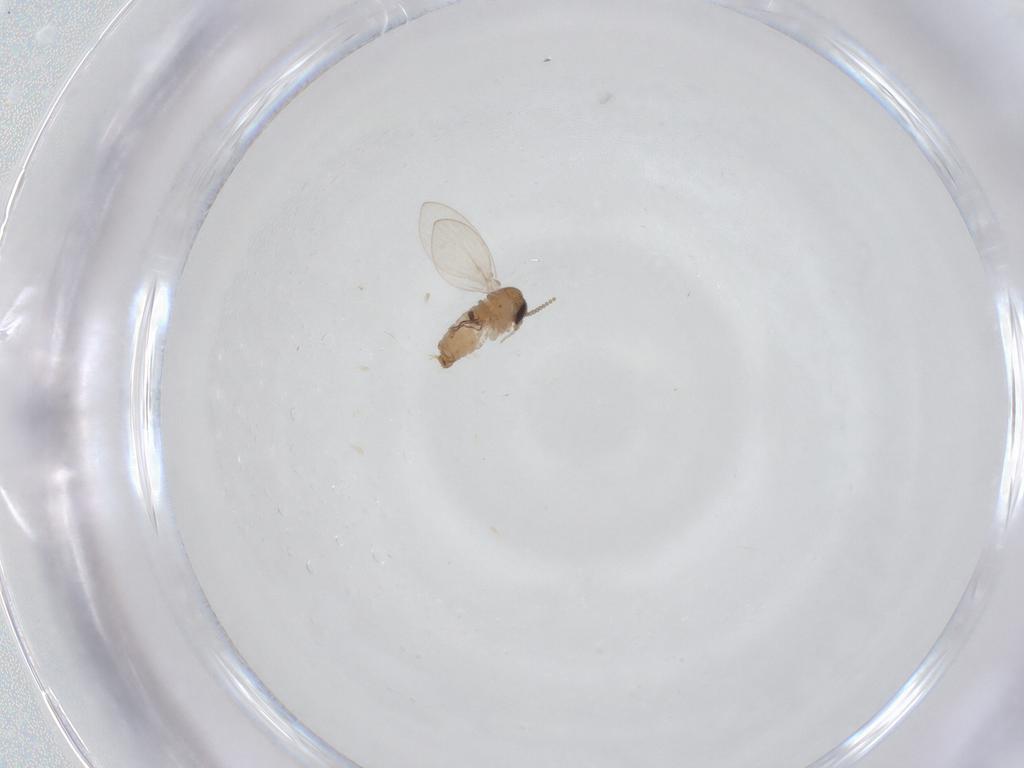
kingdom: Animalia
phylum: Arthropoda
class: Insecta
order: Diptera
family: Psychodidae
